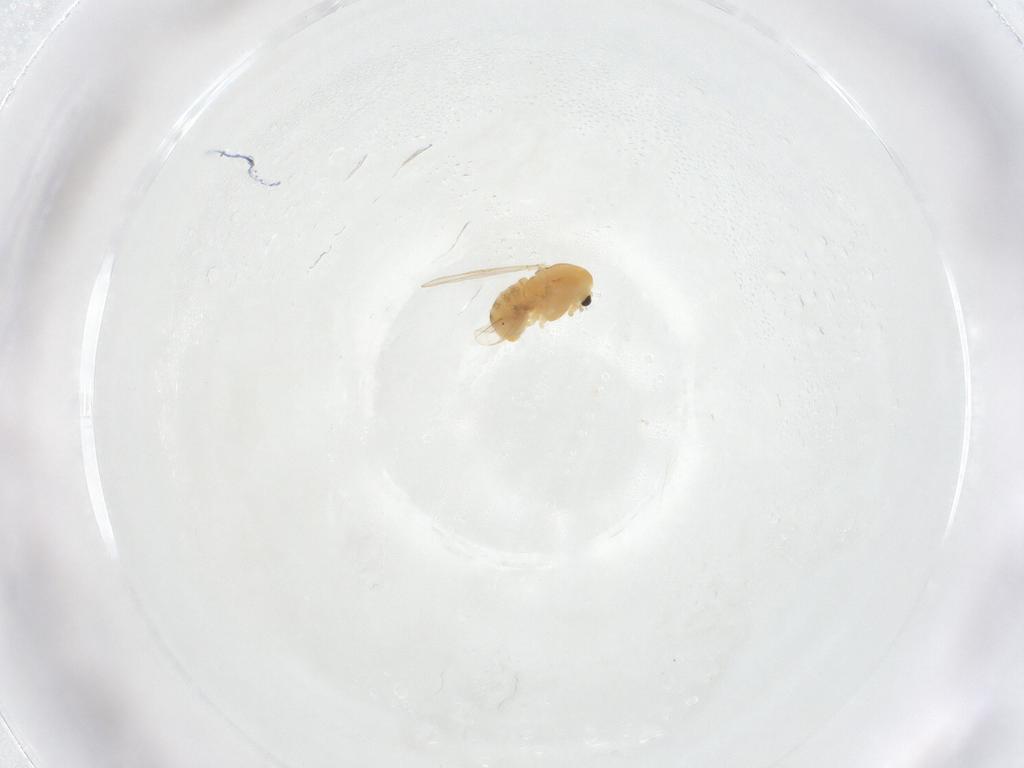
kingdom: Animalia
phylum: Arthropoda
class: Insecta
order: Diptera
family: Chironomidae
